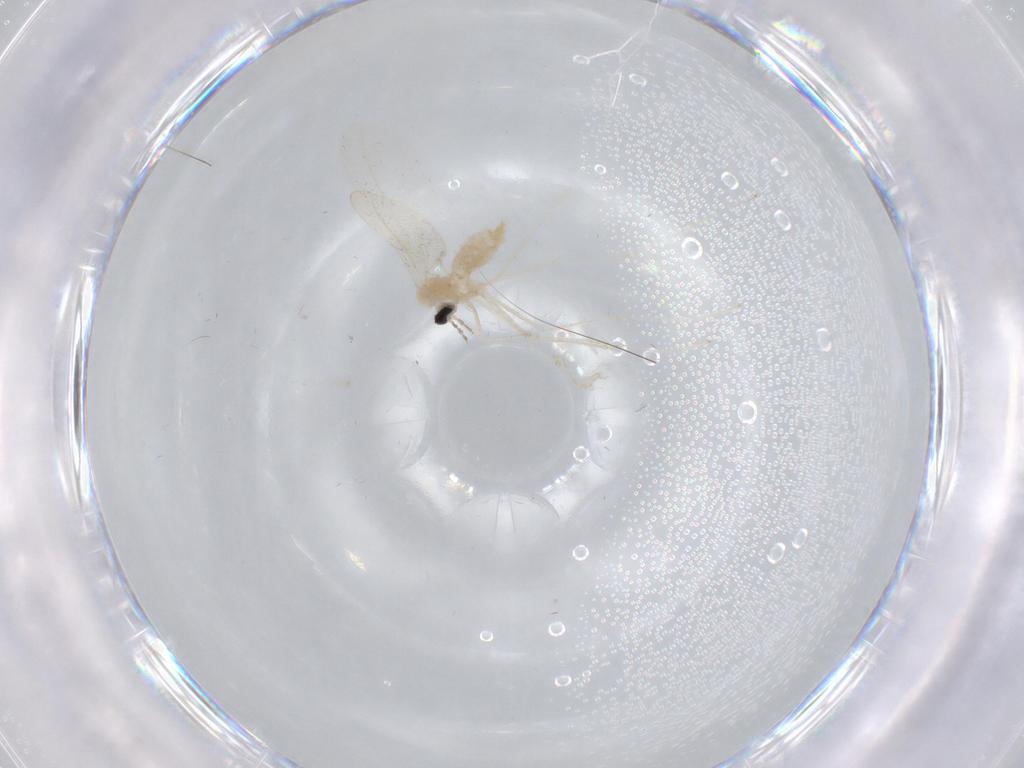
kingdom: Animalia
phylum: Arthropoda
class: Insecta
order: Diptera
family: Cecidomyiidae
